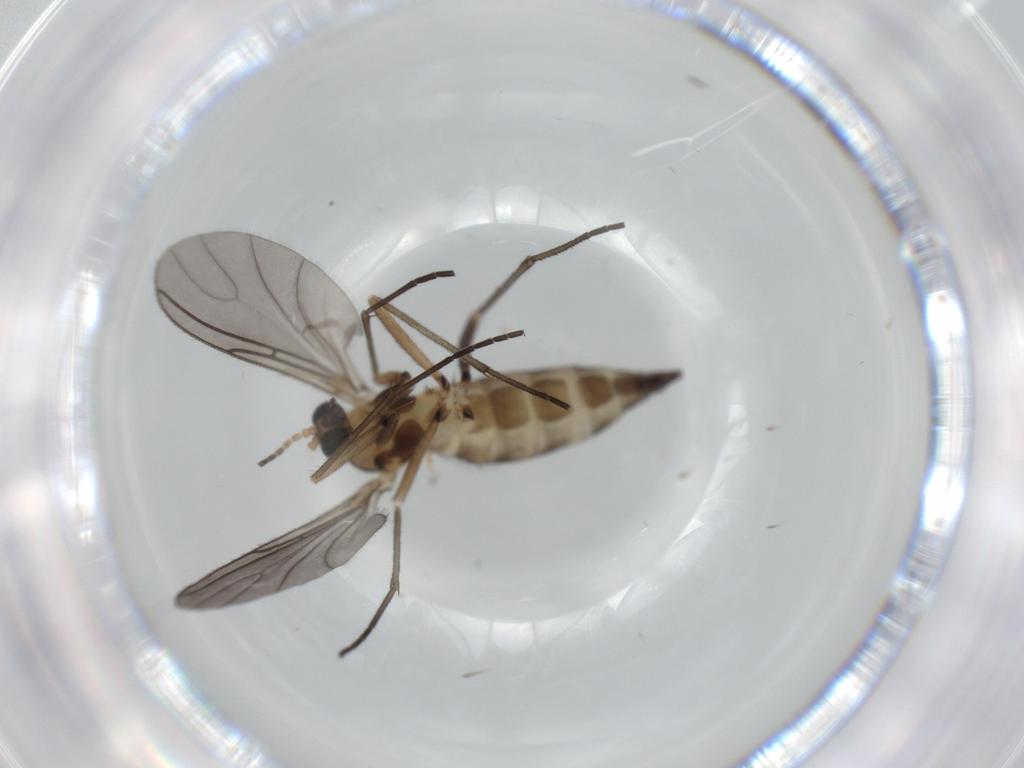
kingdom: Animalia
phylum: Arthropoda
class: Insecta
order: Diptera
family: Sciaridae
